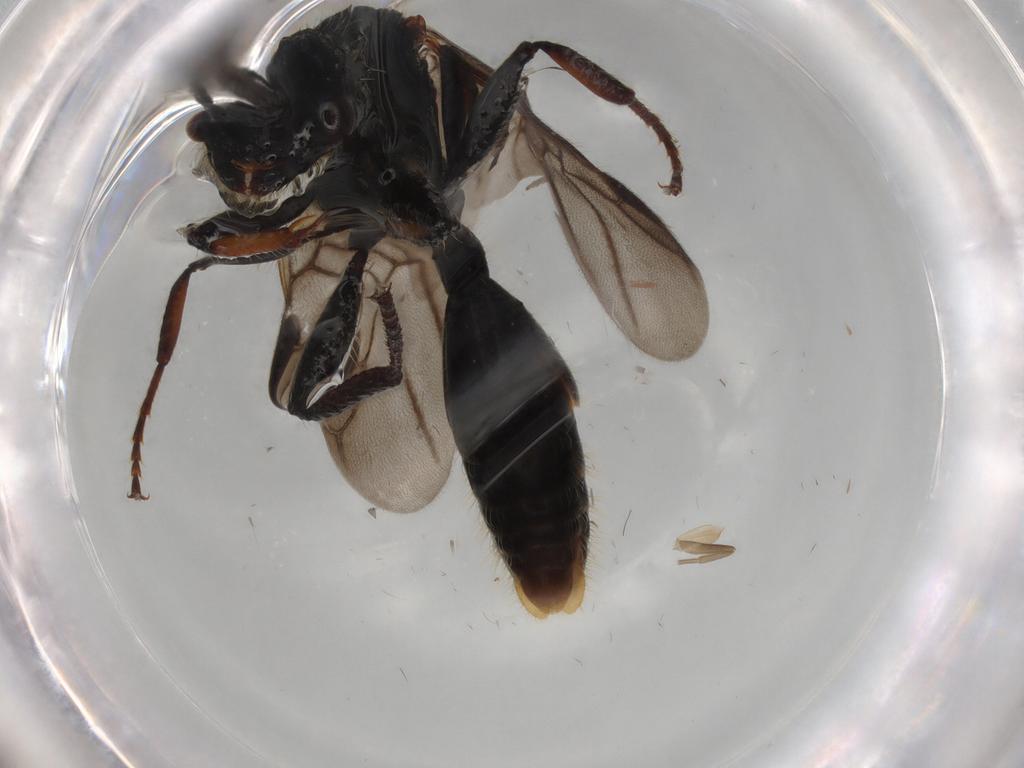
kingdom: Animalia
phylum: Arthropoda
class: Insecta
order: Hymenoptera
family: Formicidae
